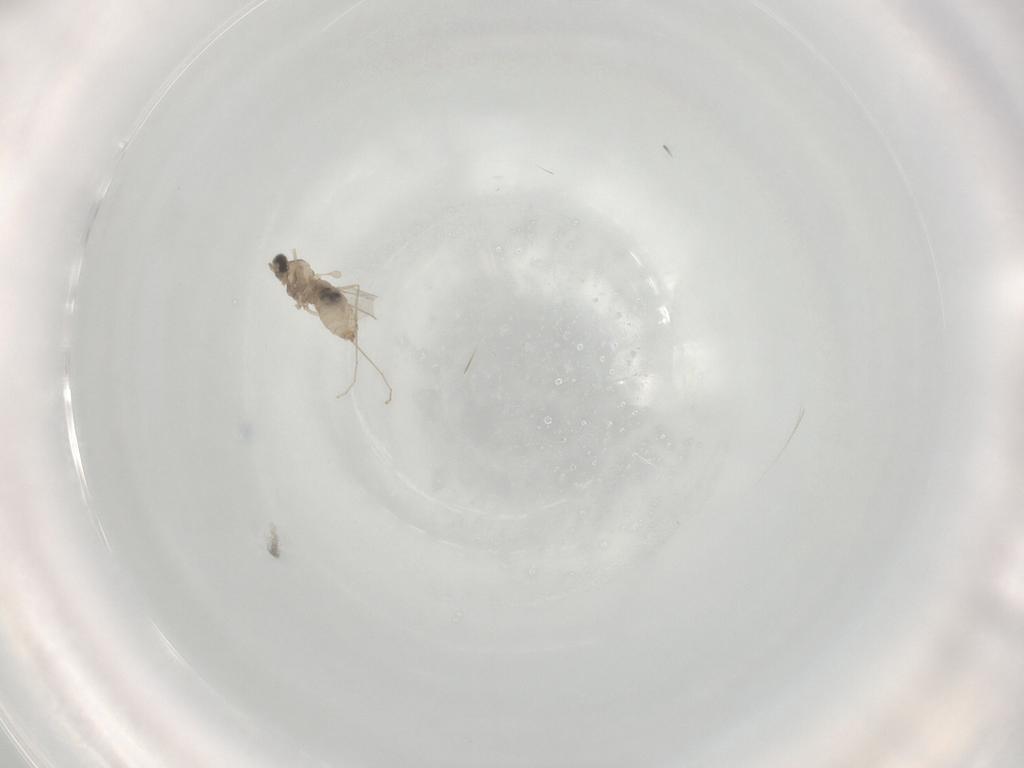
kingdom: Animalia
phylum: Arthropoda
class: Insecta
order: Diptera
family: Cecidomyiidae
